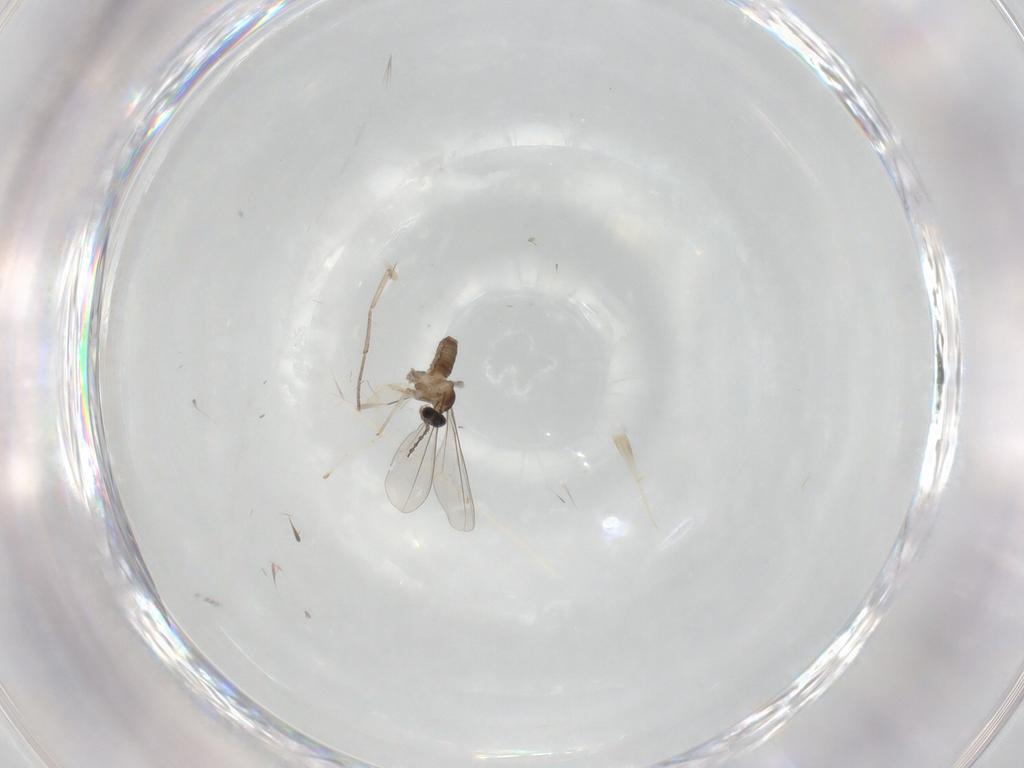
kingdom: Animalia
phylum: Arthropoda
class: Insecta
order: Diptera
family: Cecidomyiidae
